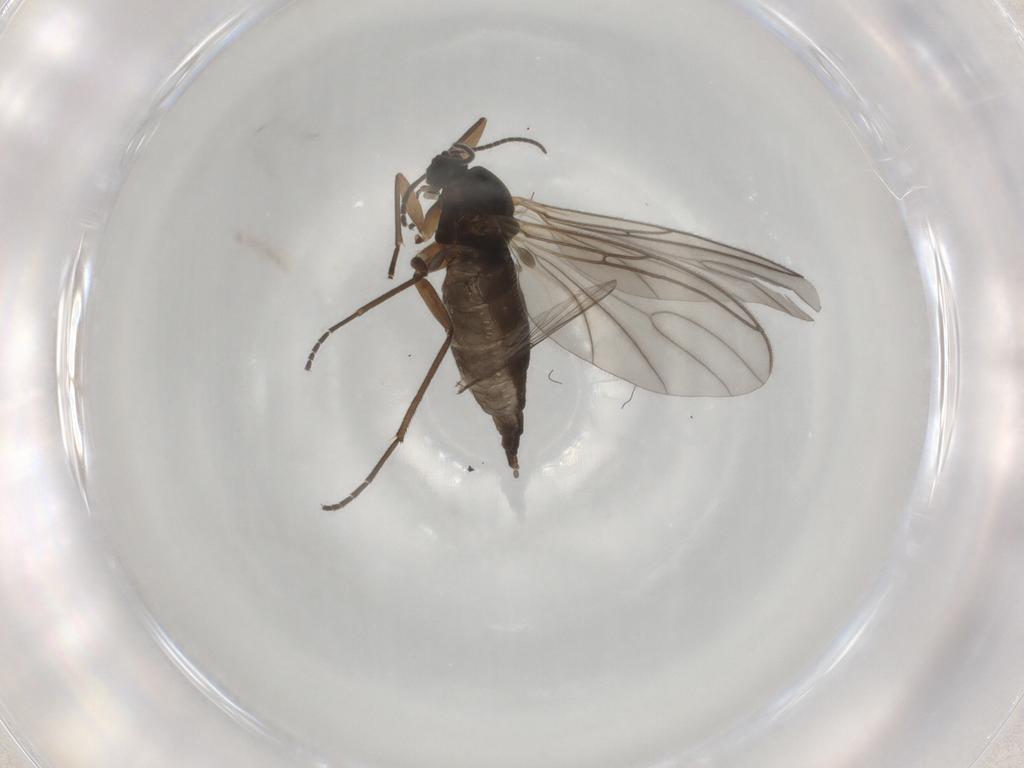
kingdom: Animalia
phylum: Arthropoda
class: Insecta
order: Diptera
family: Sciaridae
